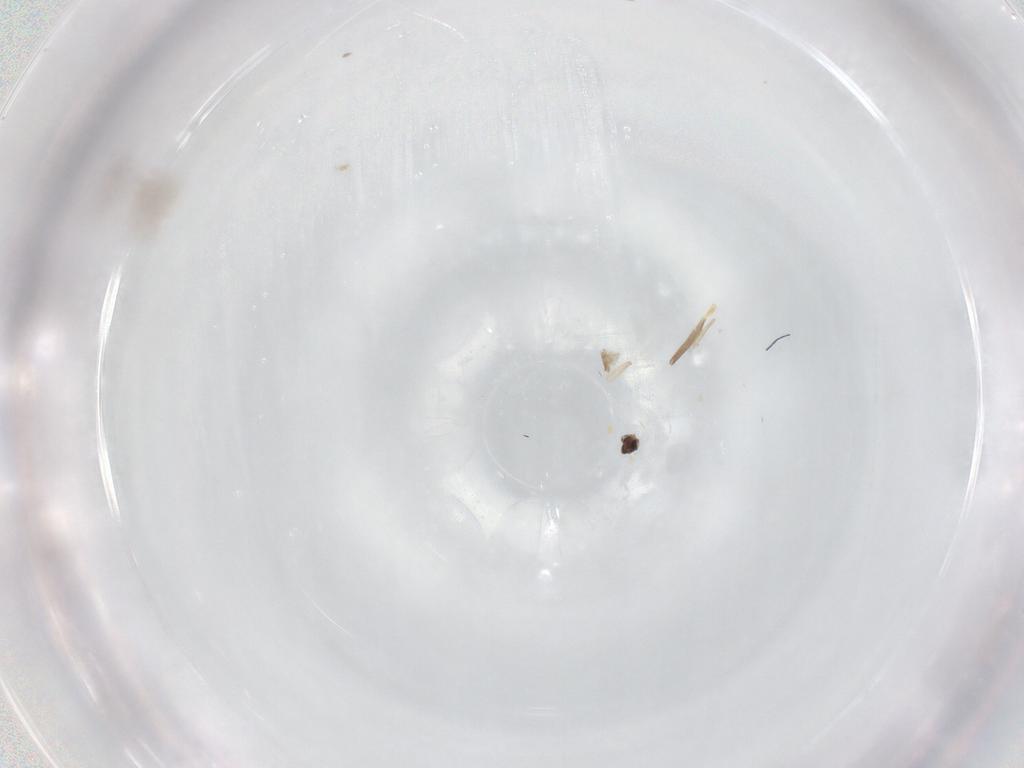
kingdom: Animalia
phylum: Arthropoda
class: Insecta
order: Diptera
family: Cecidomyiidae
